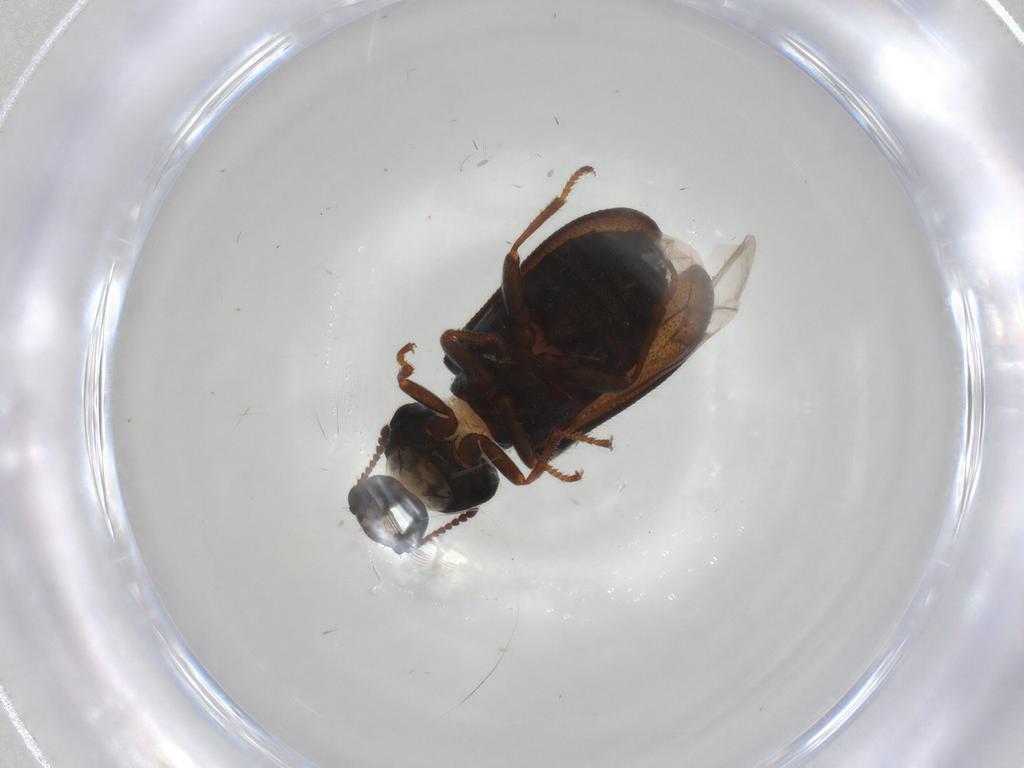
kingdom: Animalia
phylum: Arthropoda
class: Insecta
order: Coleoptera
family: Melyridae
